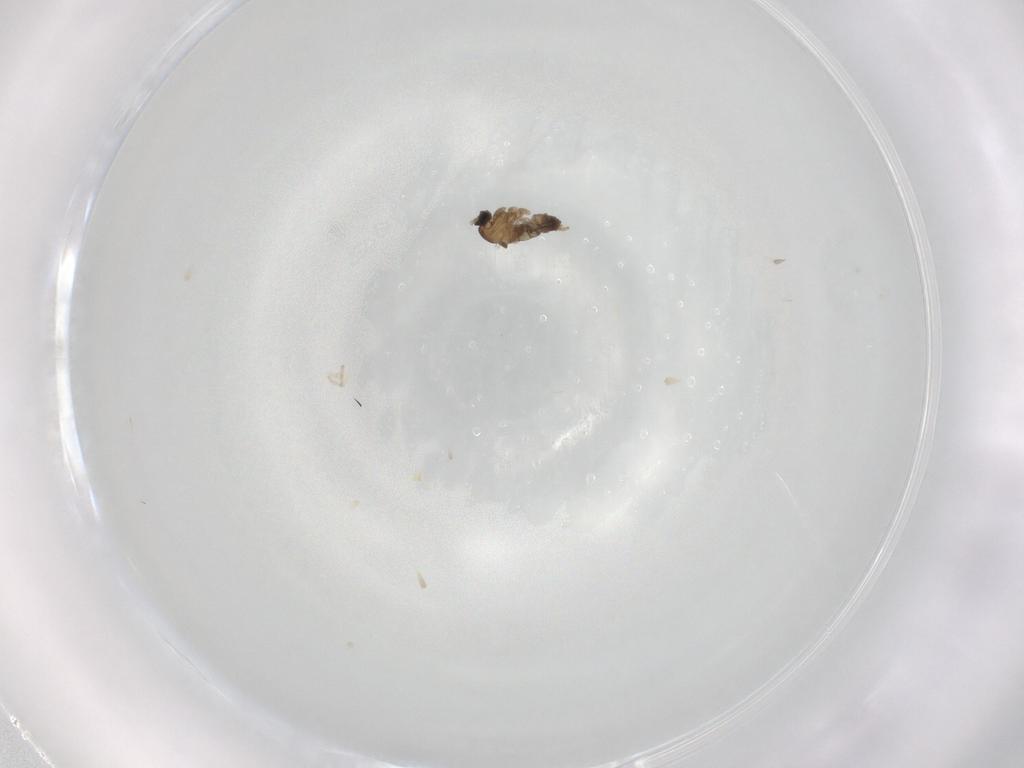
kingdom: Animalia
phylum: Arthropoda
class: Insecta
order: Diptera
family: Cecidomyiidae
